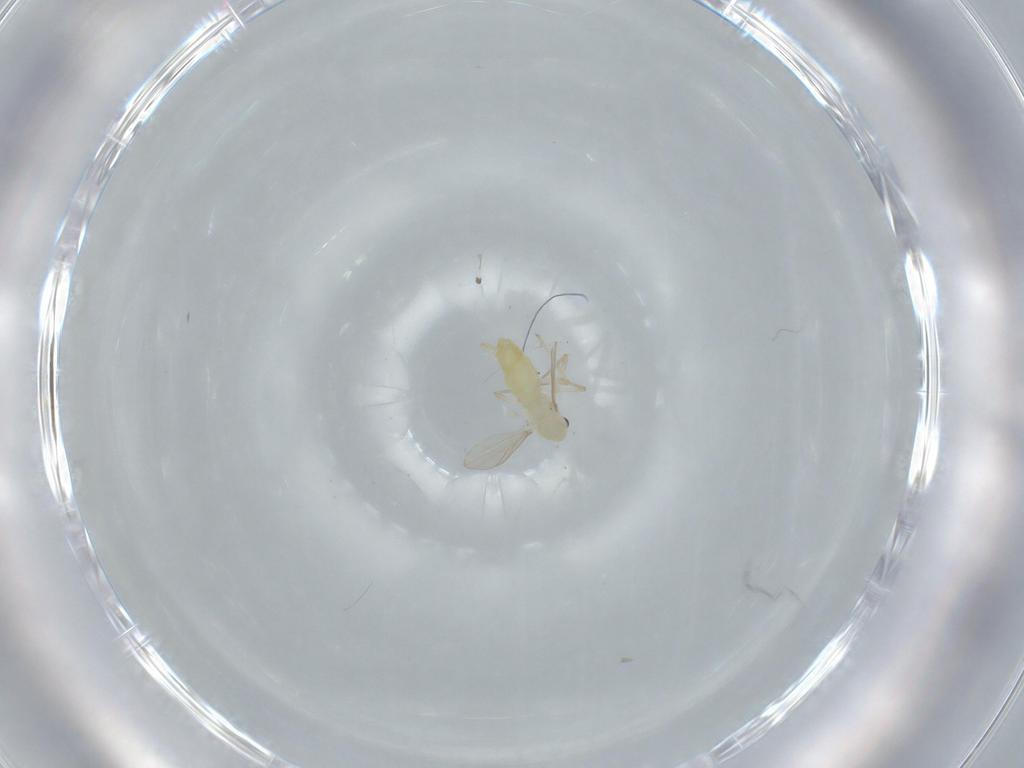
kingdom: Animalia
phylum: Arthropoda
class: Insecta
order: Diptera
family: Chironomidae
